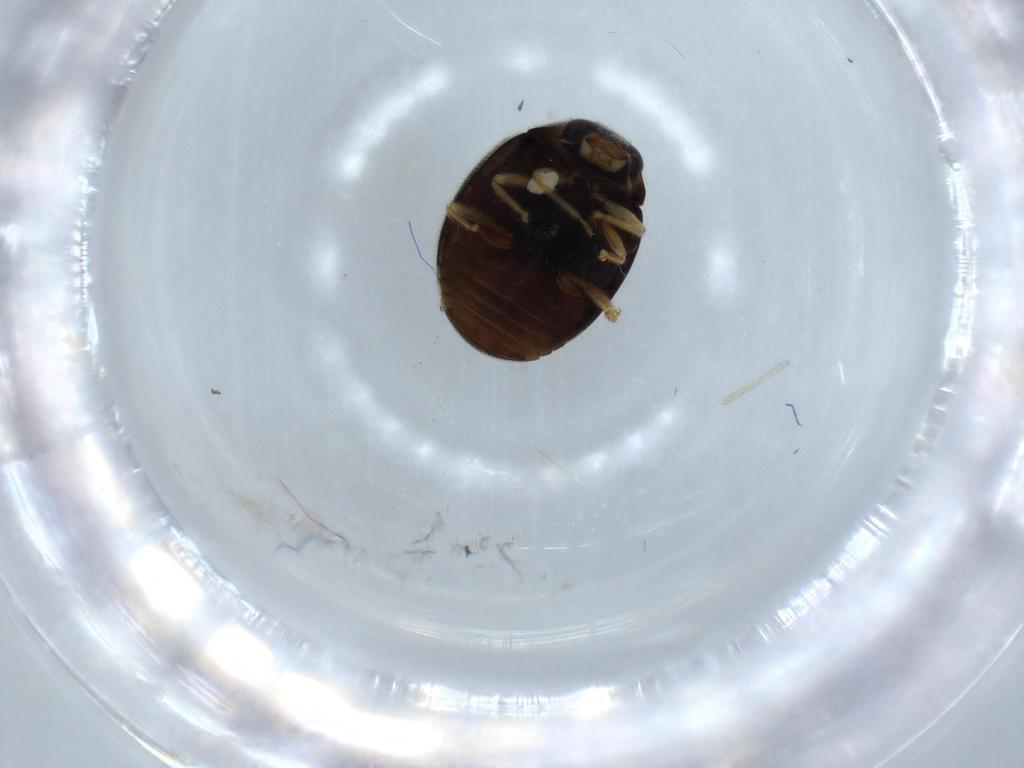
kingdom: Animalia
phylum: Arthropoda
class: Insecta
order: Coleoptera
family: Coccinellidae
